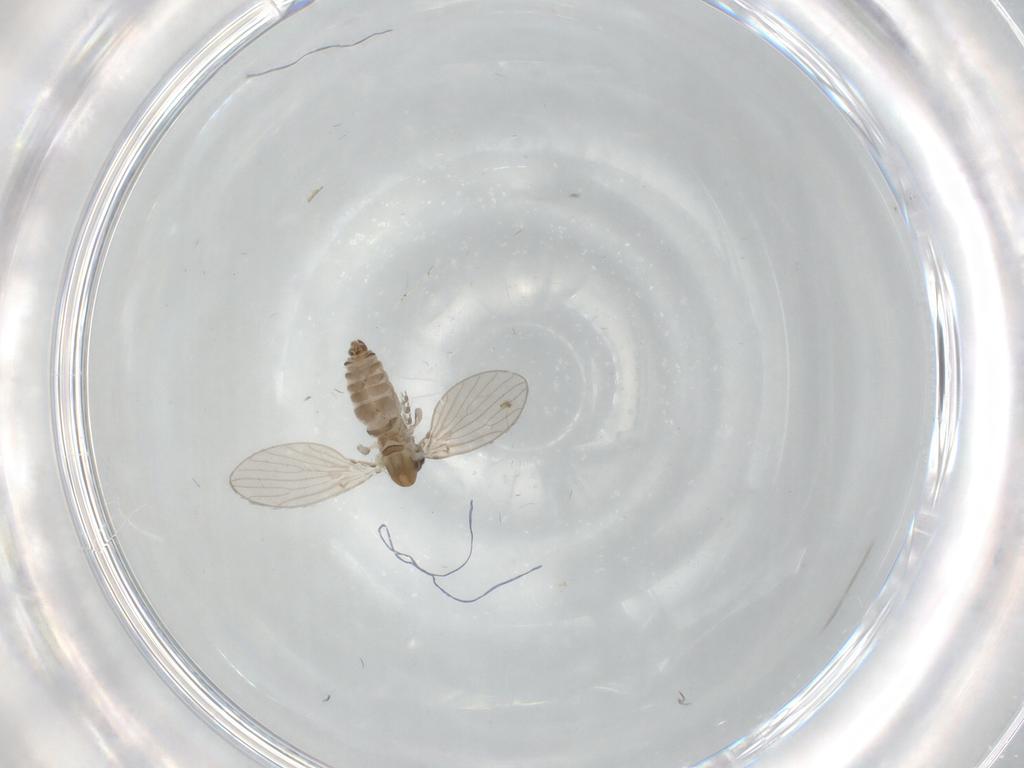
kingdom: Animalia
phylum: Arthropoda
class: Insecta
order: Diptera
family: Psychodidae
